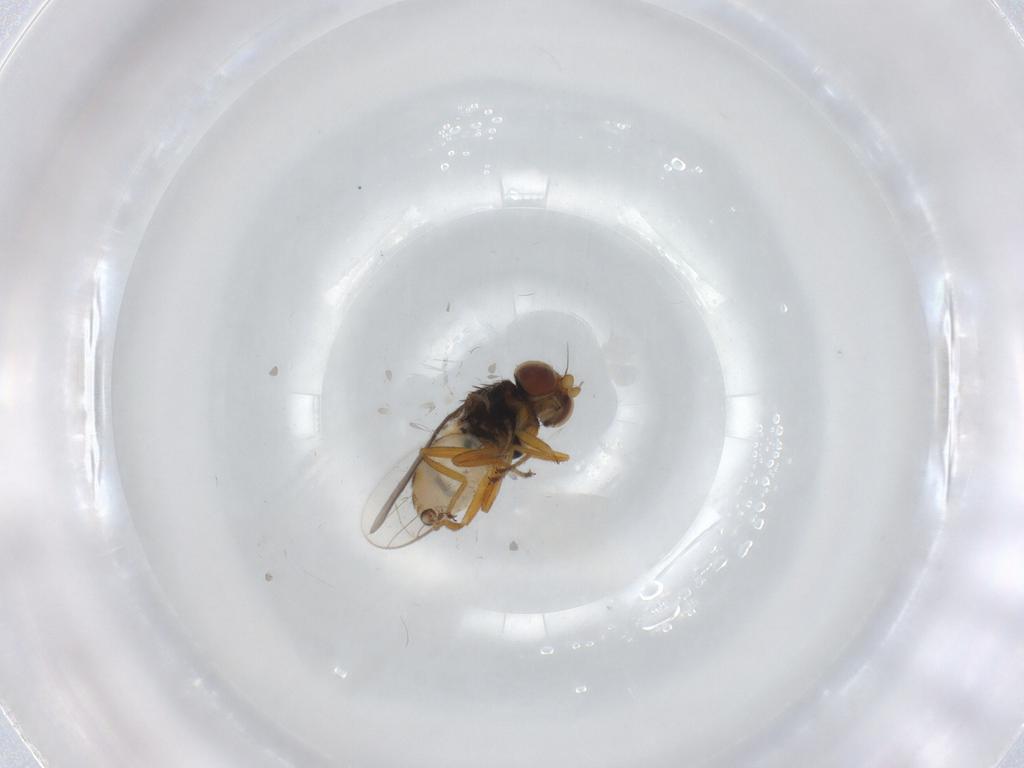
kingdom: Animalia
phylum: Arthropoda
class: Insecta
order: Diptera
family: Chloropidae
